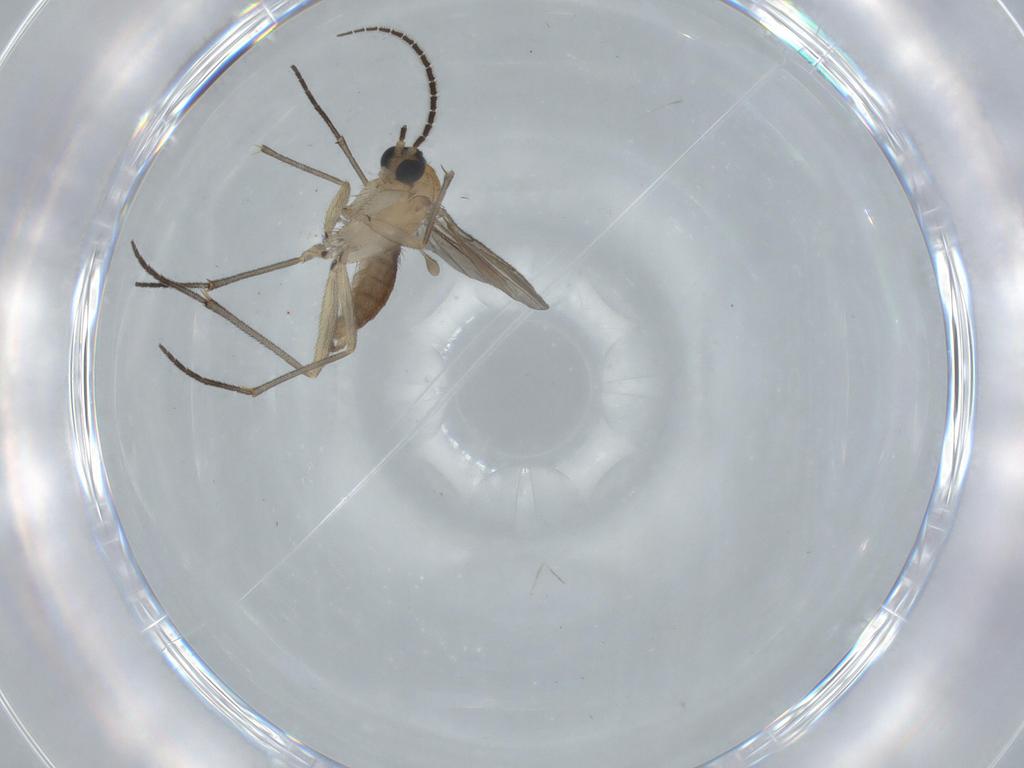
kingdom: Animalia
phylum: Arthropoda
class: Insecta
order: Diptera
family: Sciaridae
